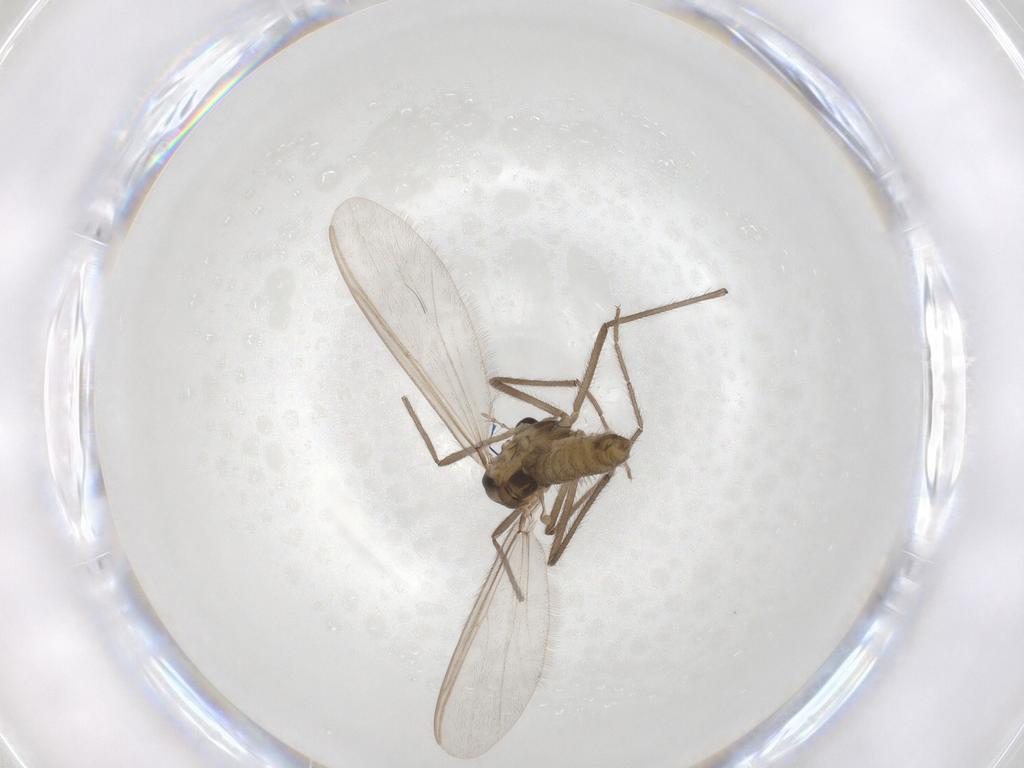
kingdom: Animalia
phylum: Arthropoda
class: Insecta
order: Diptera
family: Chironomidae
